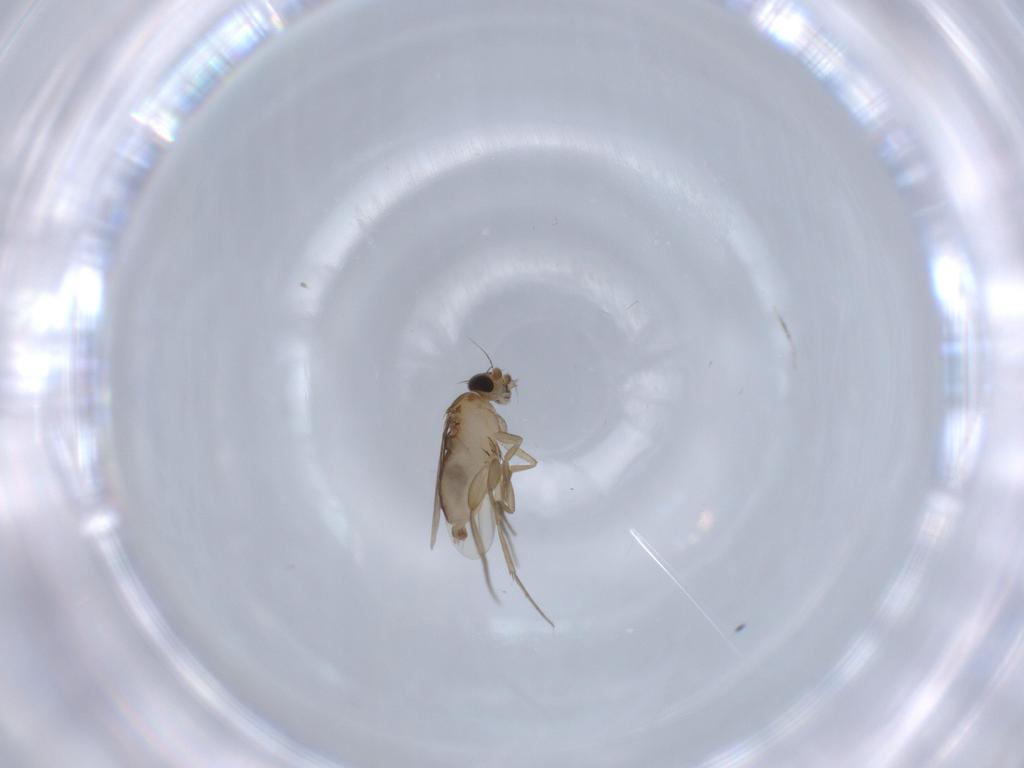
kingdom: Animalia
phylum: Arthropoda
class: Insecta
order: Diptera
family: Phoridae
